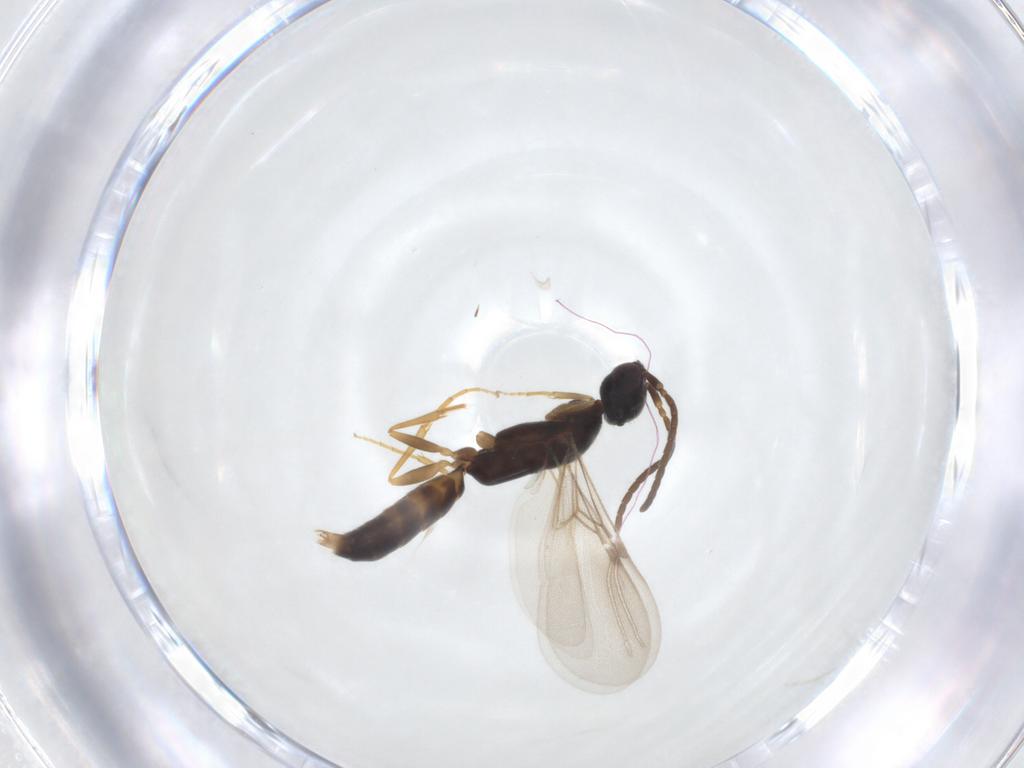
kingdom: Animalia
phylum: Arthropoda
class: Insecta
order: Hymenoptera
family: Bethylidae
